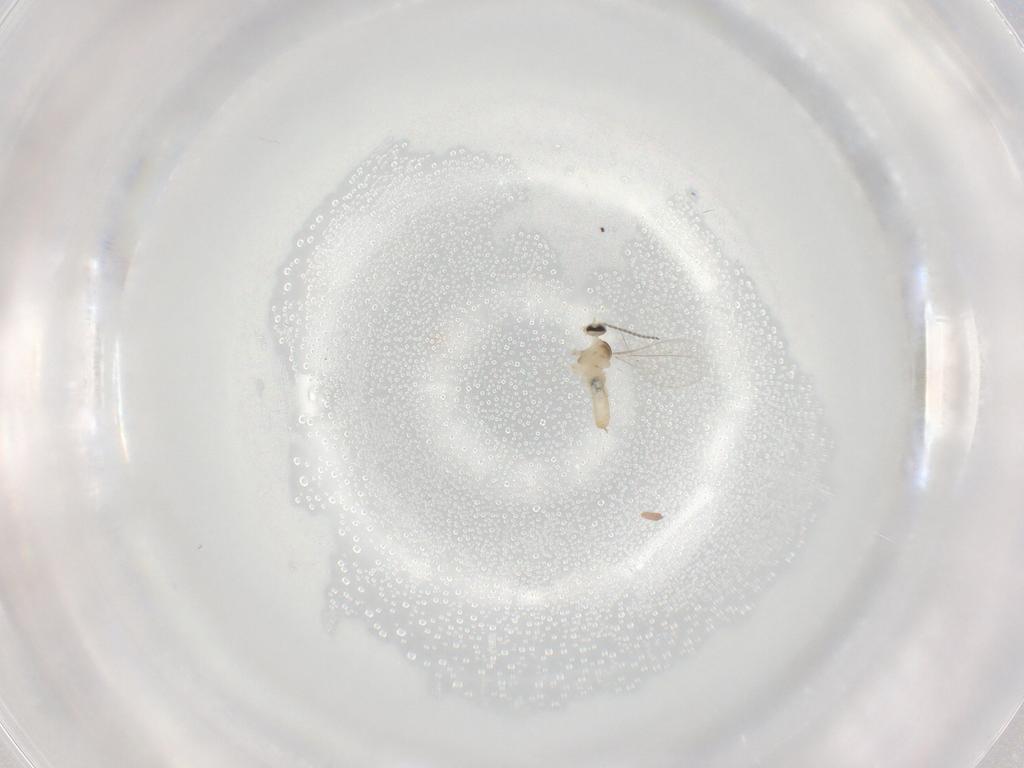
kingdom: Animalia
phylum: Arthropoda
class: Insecta
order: Diptera
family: Cecidomyiidae
